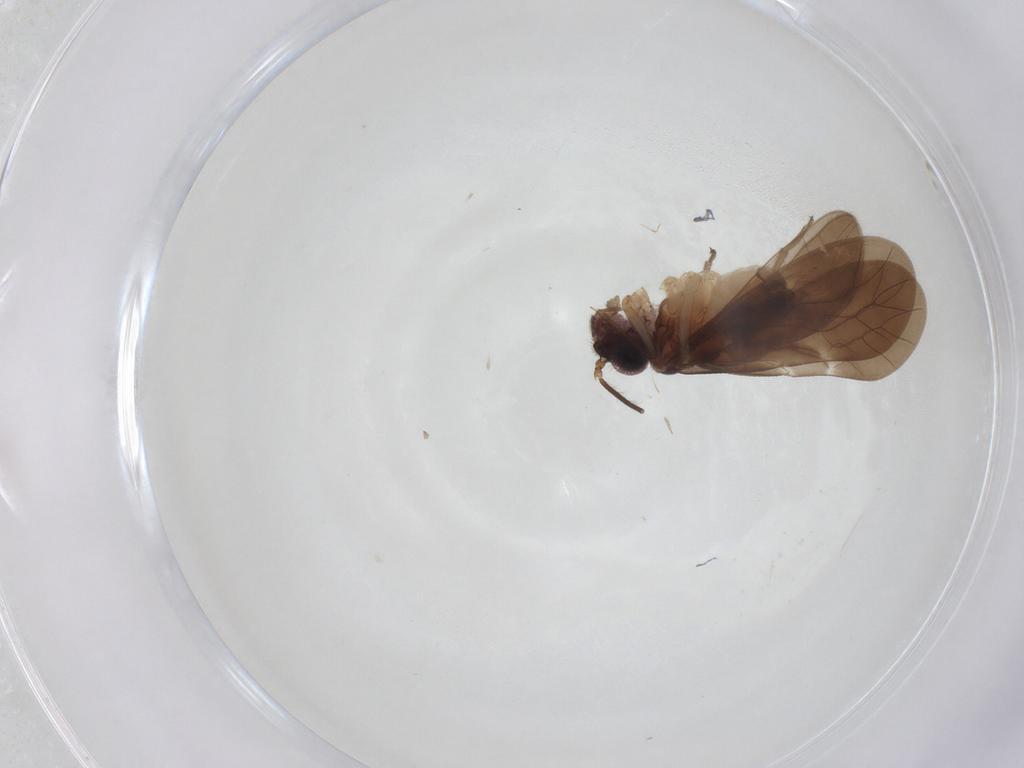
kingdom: Animalia
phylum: Arthropoda
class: Insecta
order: Psocodea
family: Caeciliusidae
